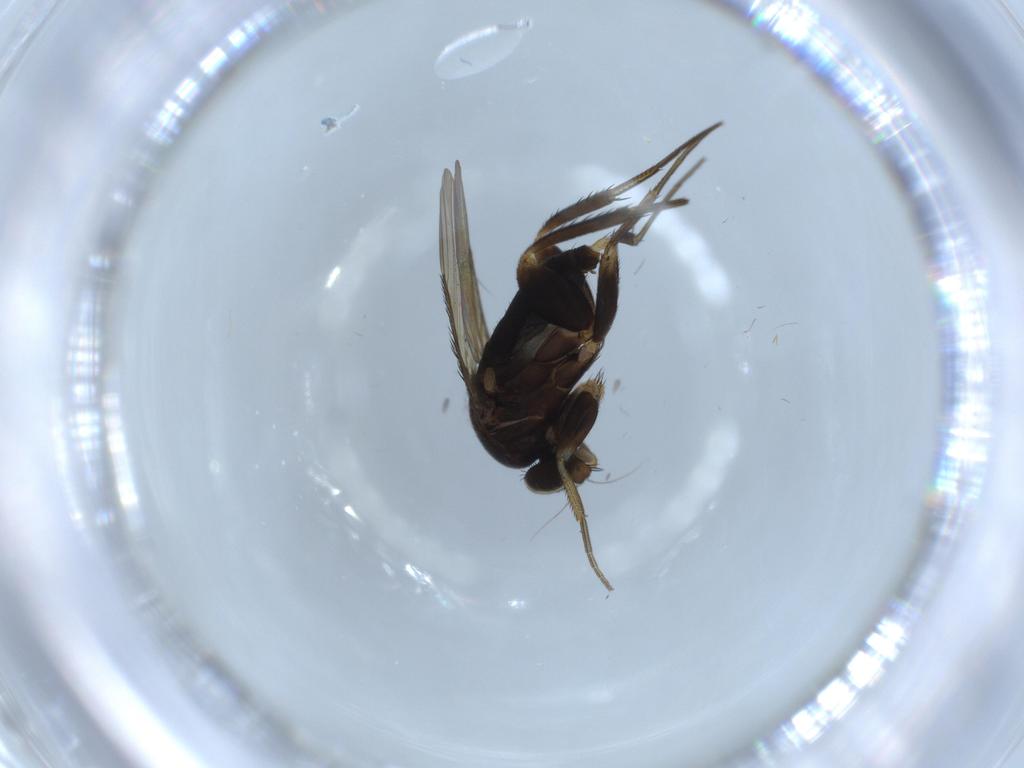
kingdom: Animalia
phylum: Arthropoda
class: Insecta
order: Diptera
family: Phoridae
